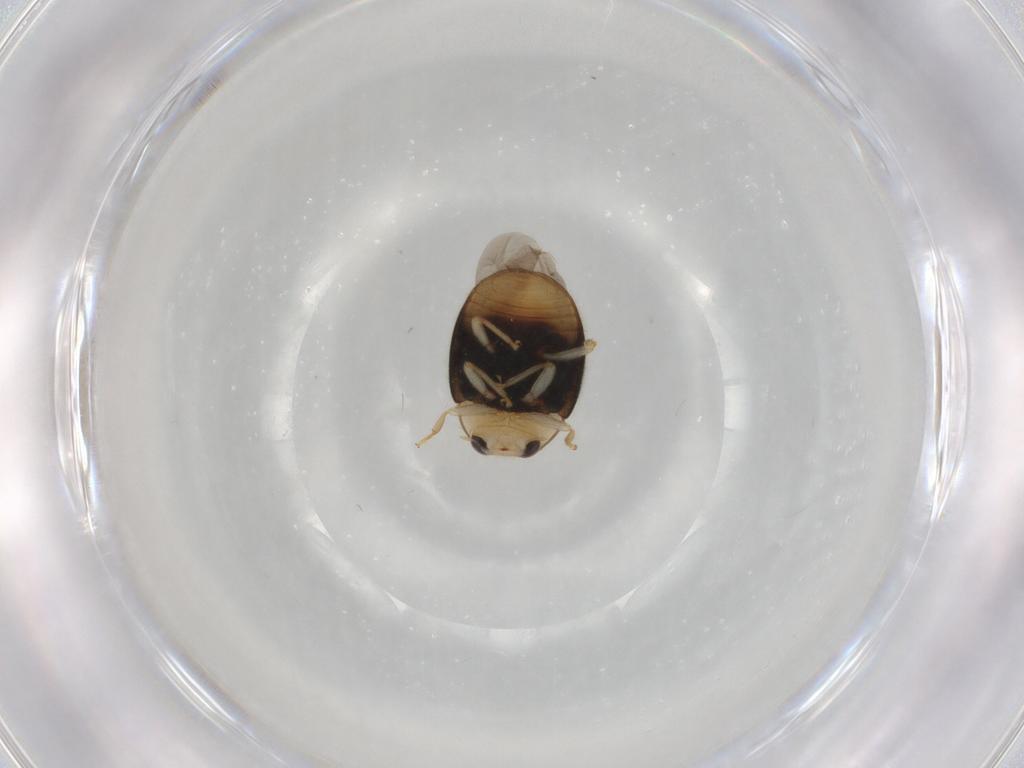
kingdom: Animalia
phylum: Arthropoda
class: Insecta
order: Coleoptera
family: Coccinellidae
